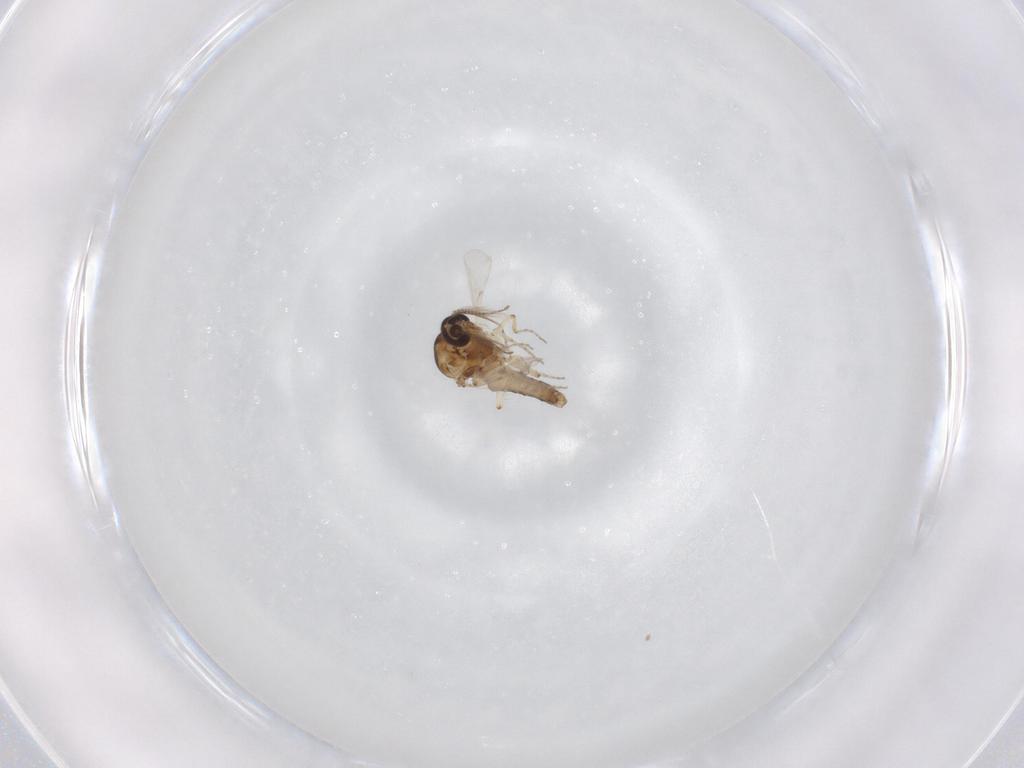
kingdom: Animalia
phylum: Arthropoda
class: Insecta
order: Diptera
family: Ceratopogonidae
